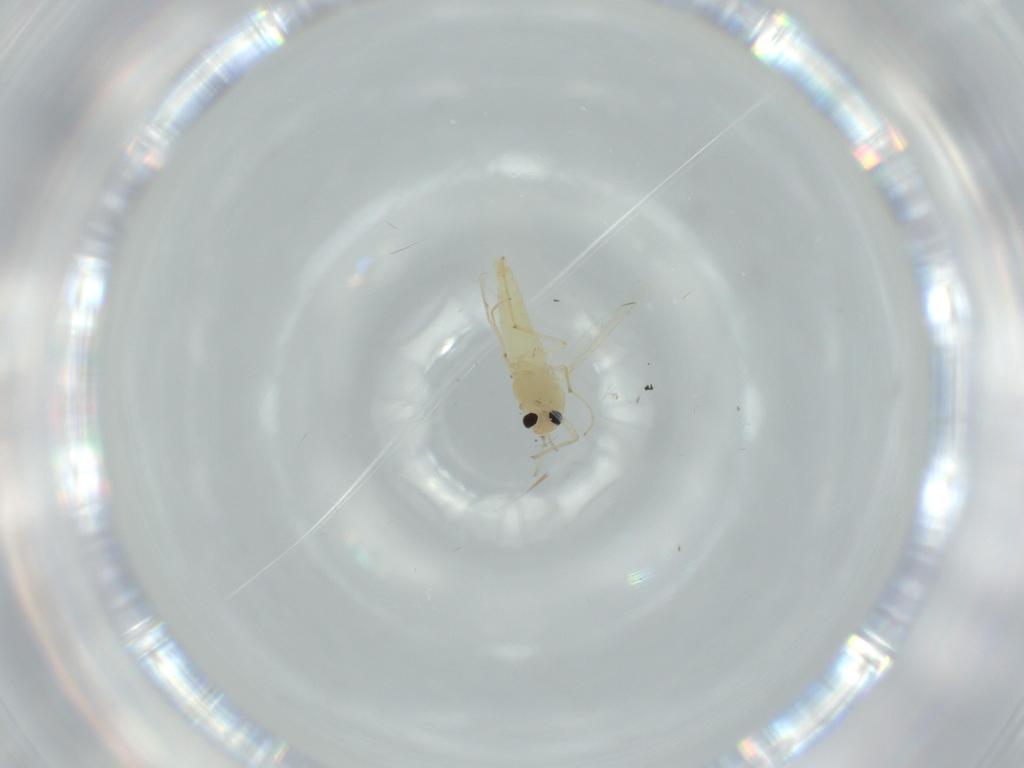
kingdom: Animalia
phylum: Arthropoda
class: Insecta
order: Diptera
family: Chironomidae
